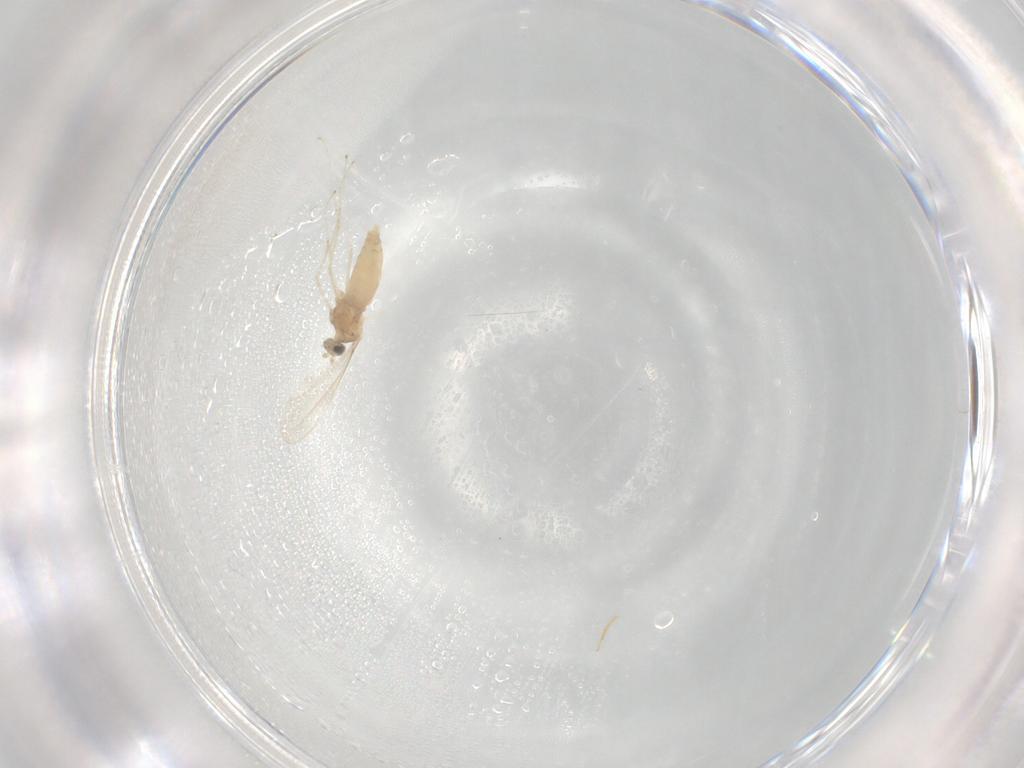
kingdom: Animalia
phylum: Arthropoda
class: Insecta
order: Diptera
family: Cecidomyiidae
